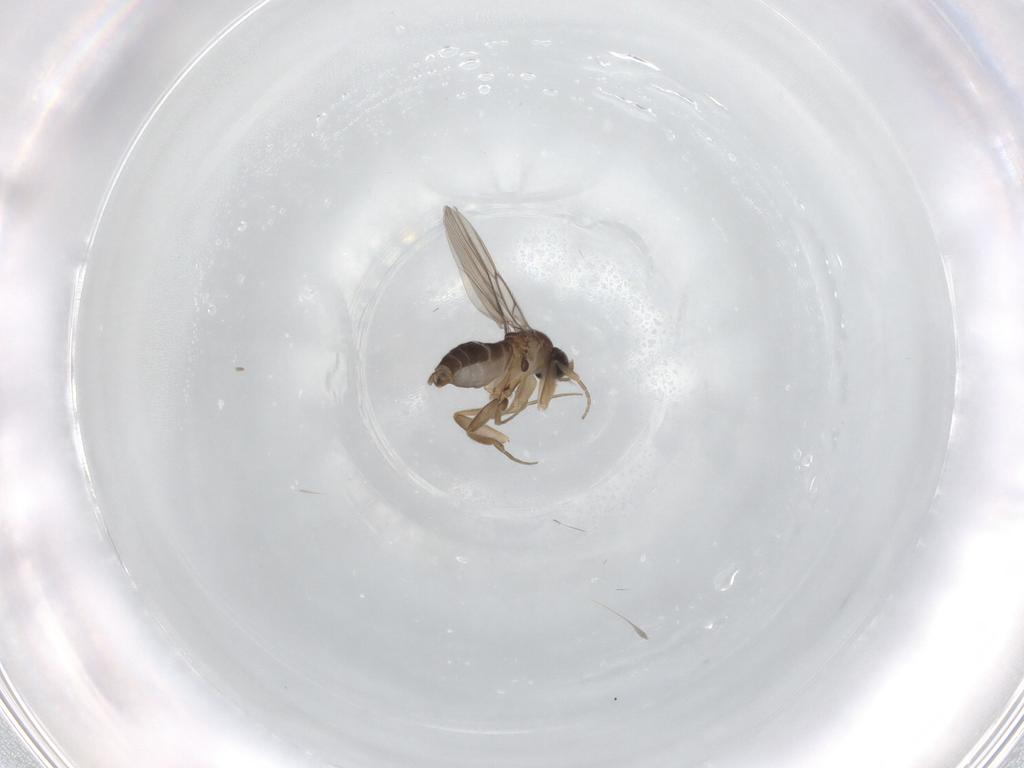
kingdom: Animalia
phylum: Arthropoda
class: Insecta
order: Diptera
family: Phoridae
